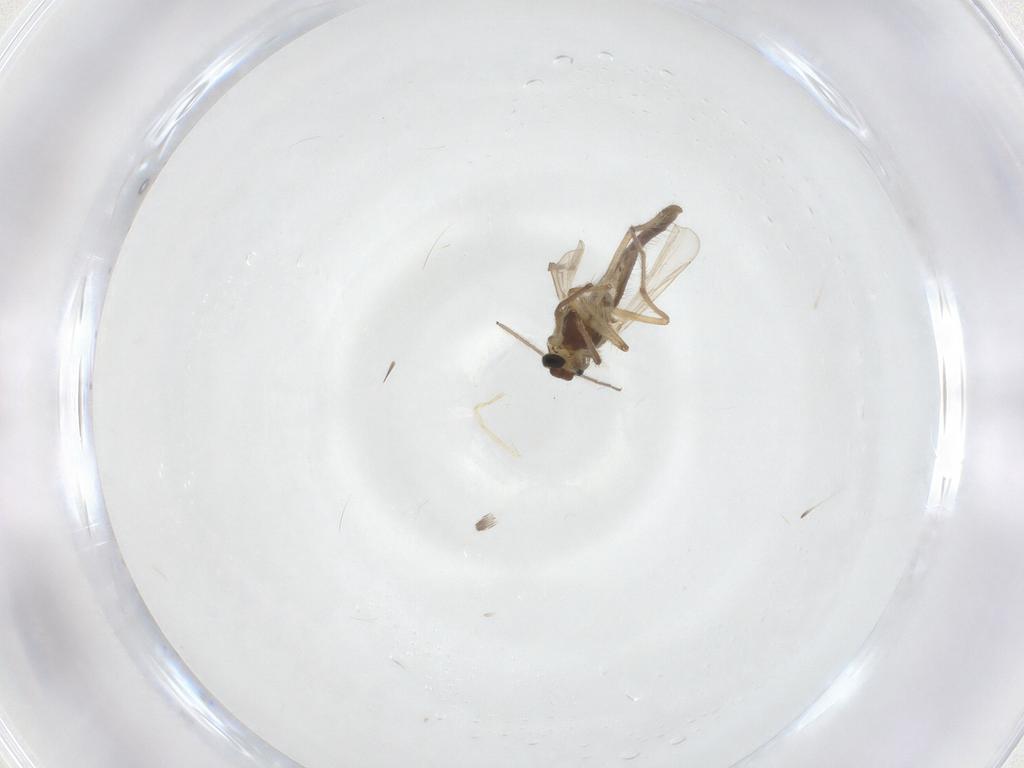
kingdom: Animalia
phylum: Arthropoda
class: Insecta
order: Diptera
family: Chironomidae
